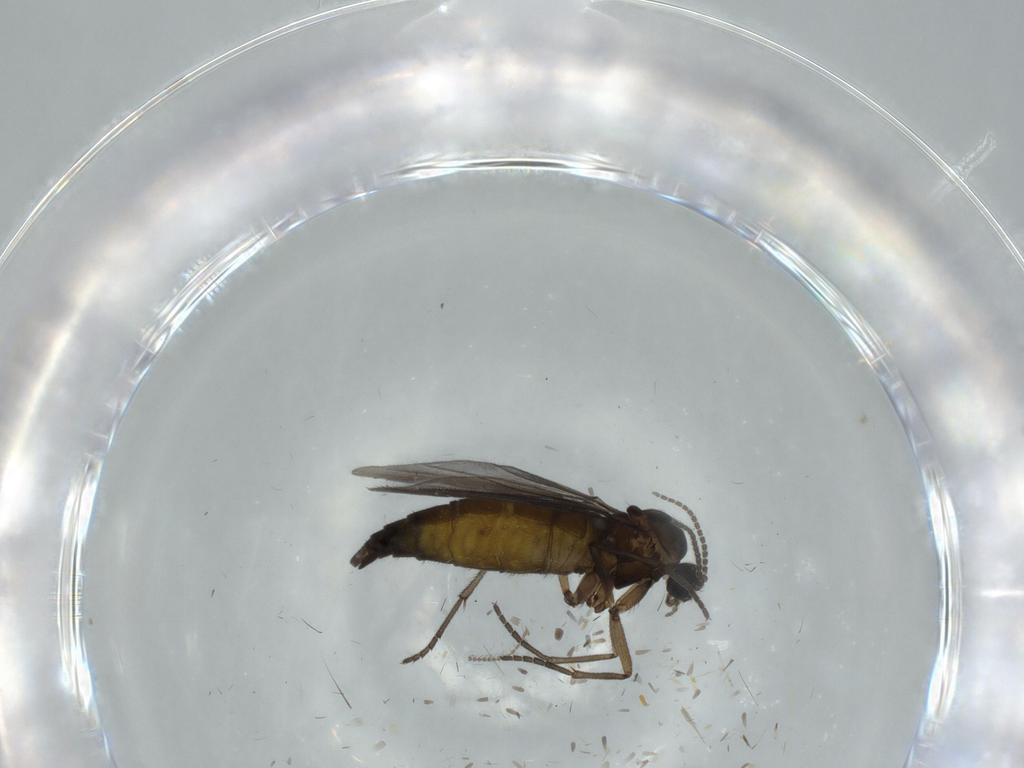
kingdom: Animalia
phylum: Arthropoda
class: Insecta
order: Diptera
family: Sciaridae
